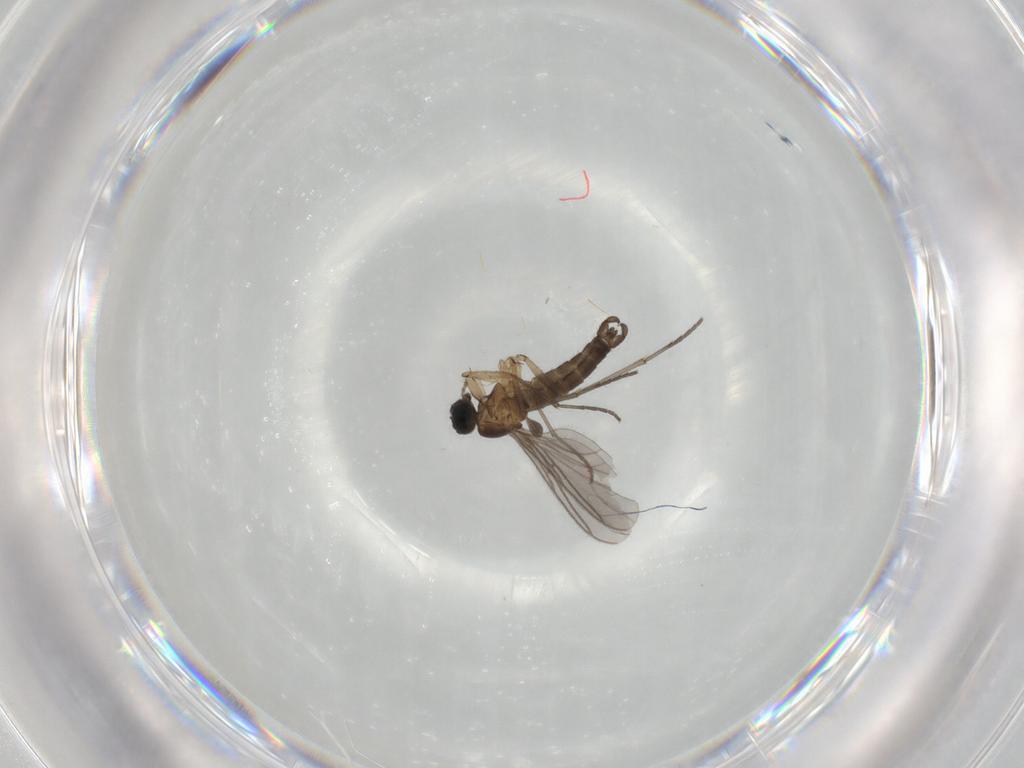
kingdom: Animalia
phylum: Arthropoda
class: Insecta
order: Diptera
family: Sciaridae
